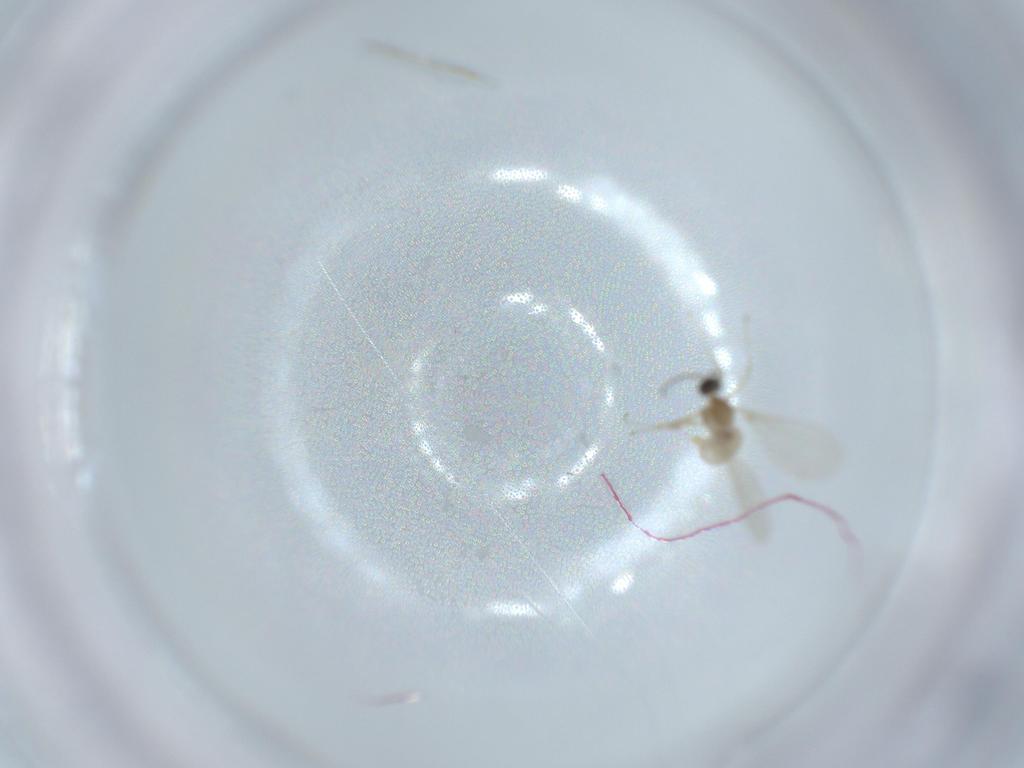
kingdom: Animalia
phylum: Arthropoda
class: Insecta
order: Diptera
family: Cecidomyiidae
